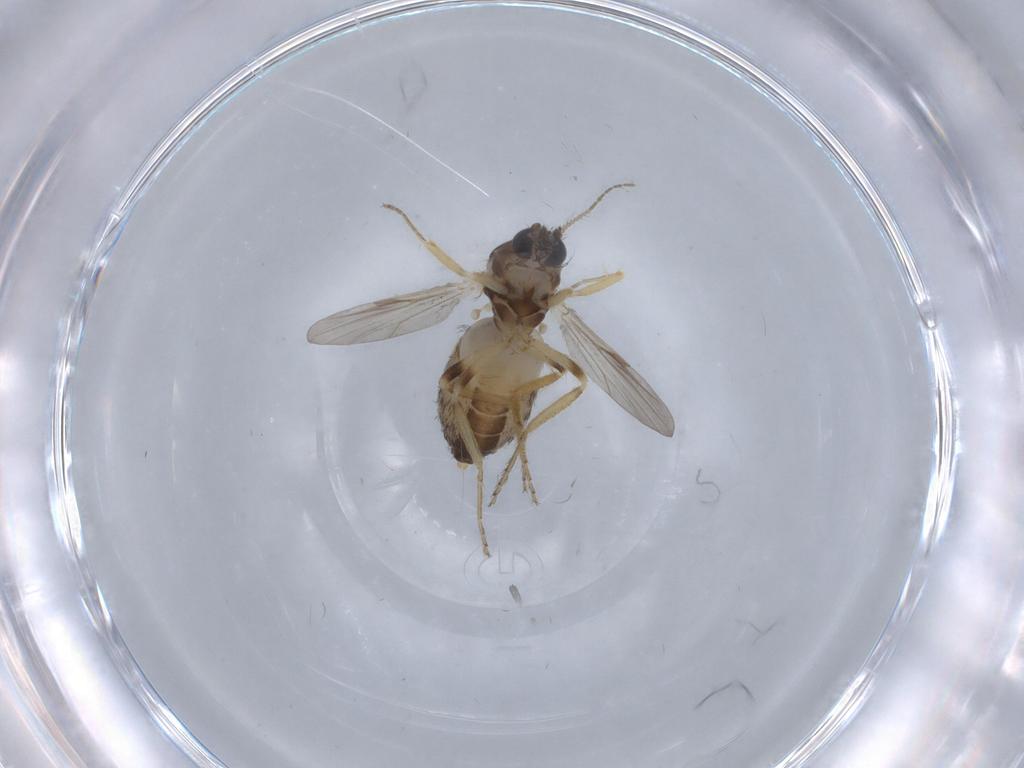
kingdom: Animalia
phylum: Arthropoda
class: Insecta
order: Diptera
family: Ceratopogonidae
